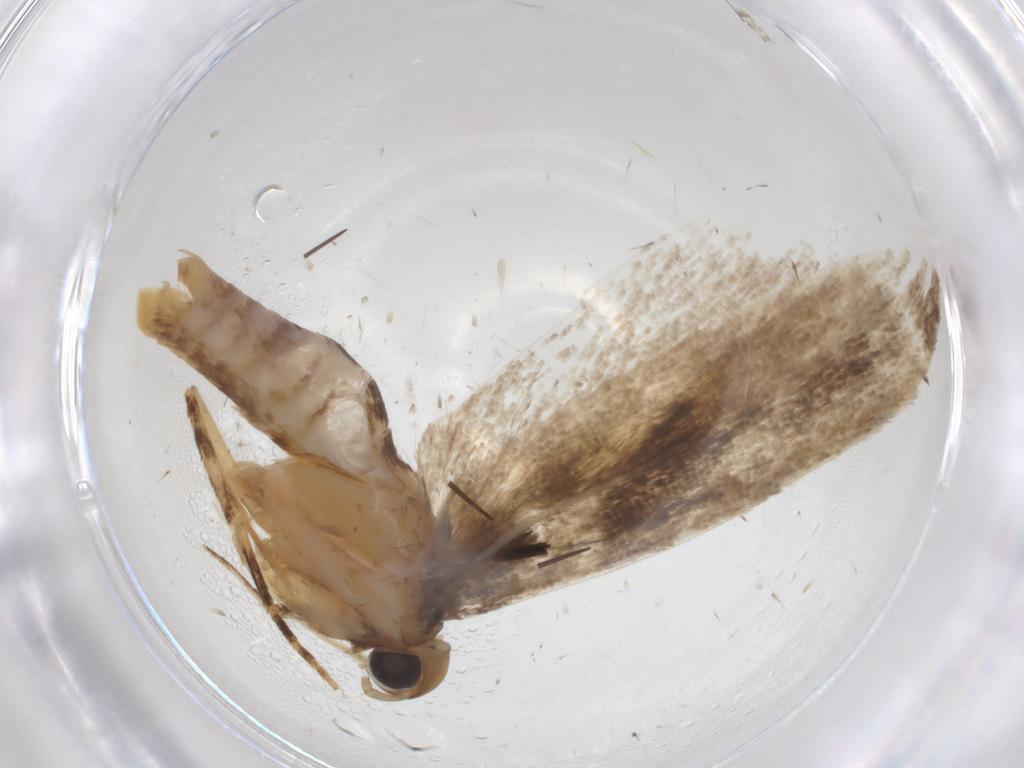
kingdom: Animalia
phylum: Arthropoda
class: Insecta
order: Lepidoptera
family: Gelechiidae
